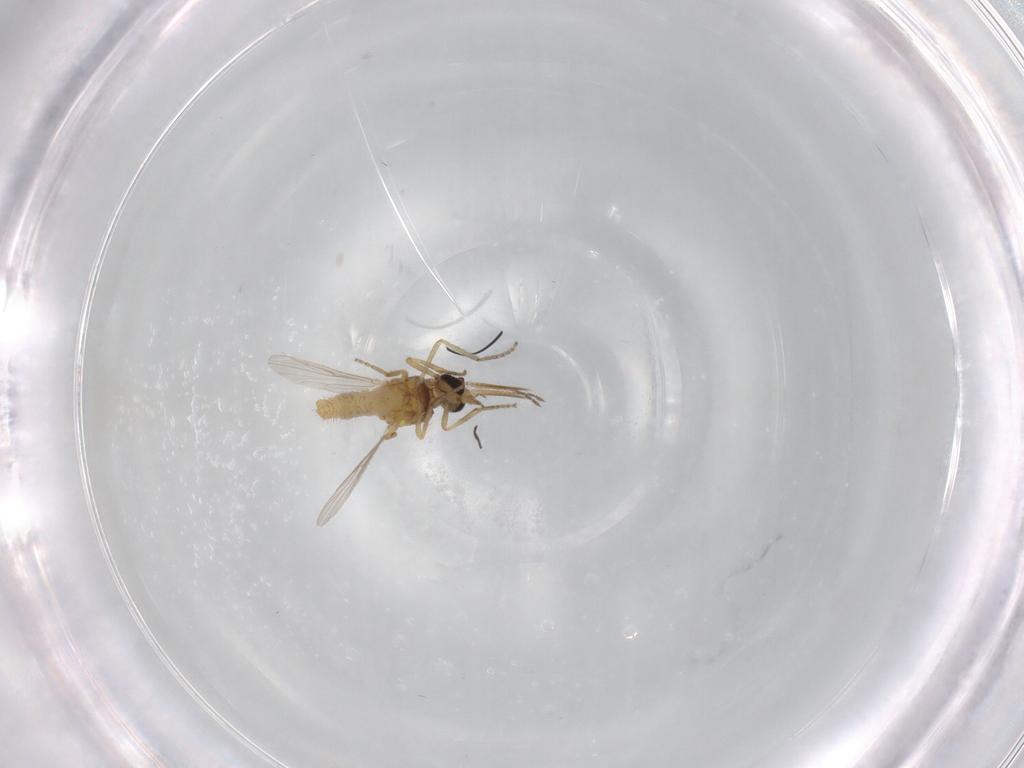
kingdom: Animalia
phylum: Arthropoda
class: Insecta
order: Diptera
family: Ceratopogonidae
